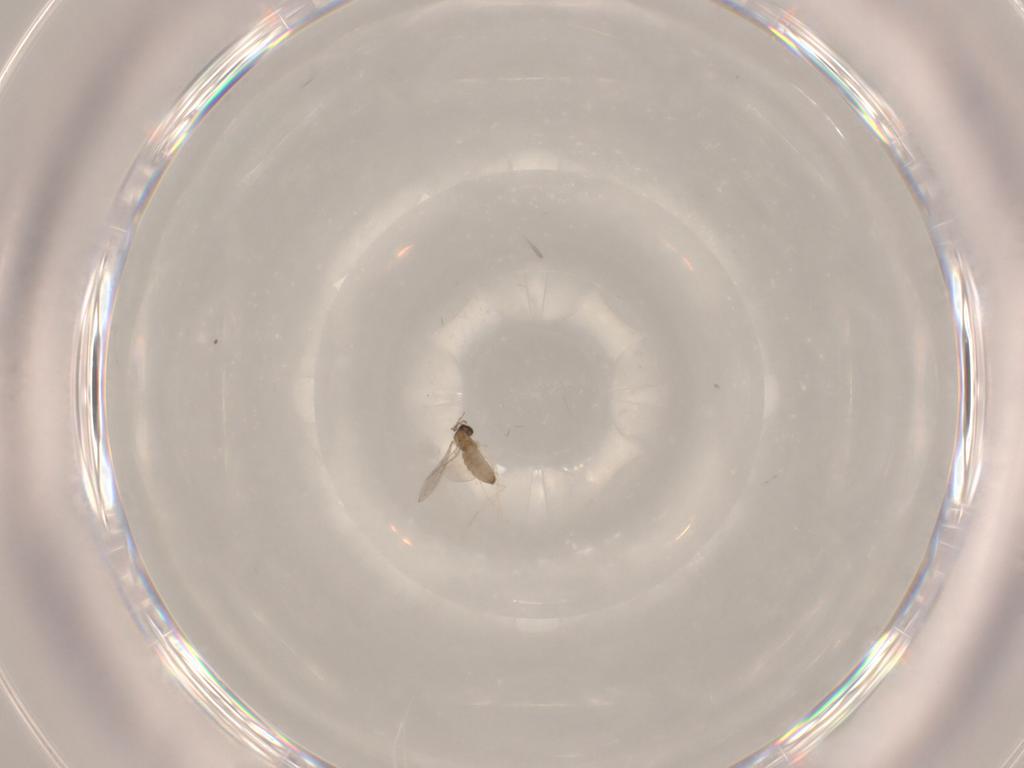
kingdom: Animalia
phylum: Arthropoda
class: Insecta
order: Diptera
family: Cecidomyiidae
